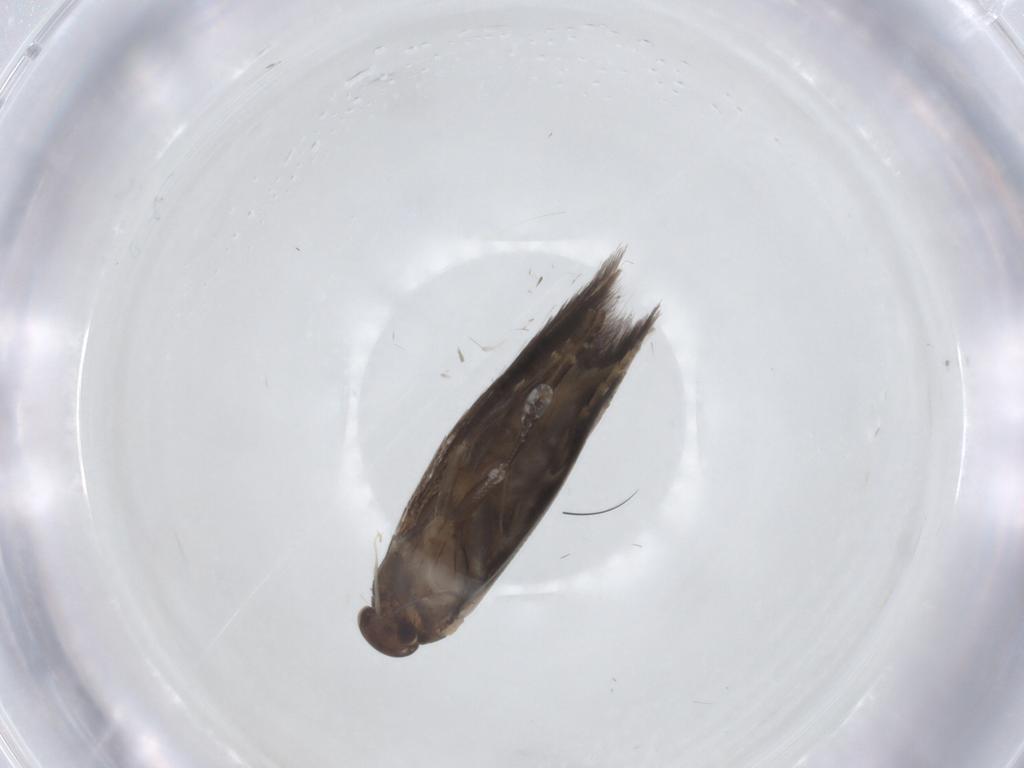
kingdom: Animalia
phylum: Arthropoda
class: Insecta
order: Lepidoptera
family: Elachistidae
